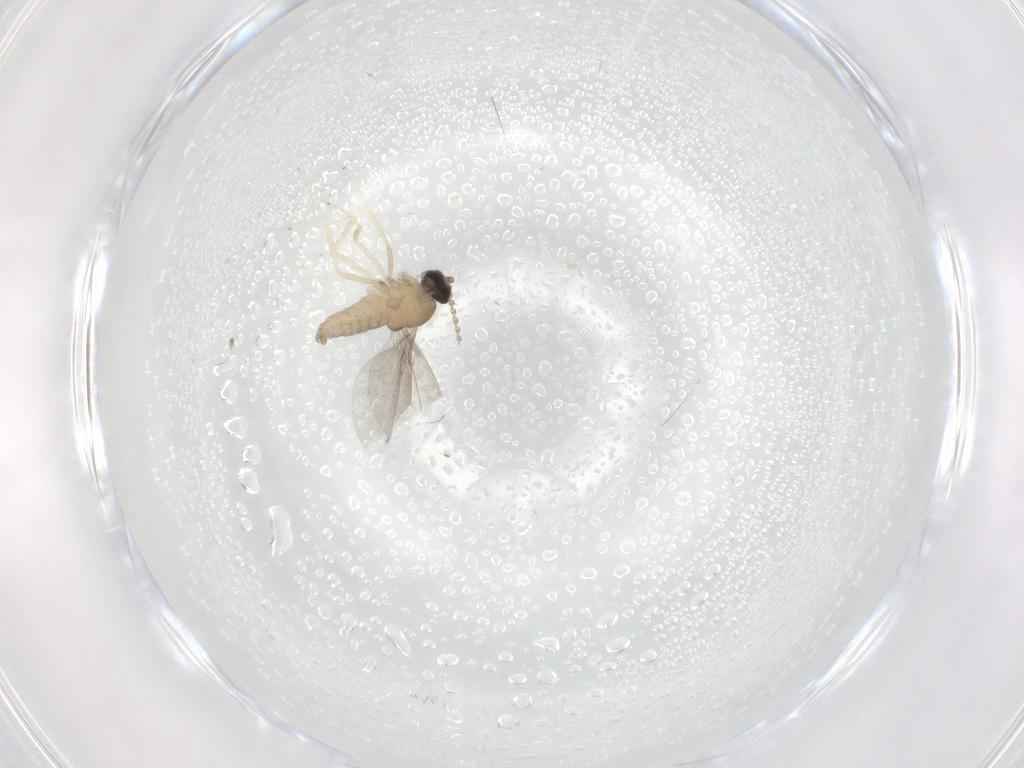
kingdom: Animalia
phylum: Arthropoda
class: Insecta
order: Diptera
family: Cecidomyiidae
